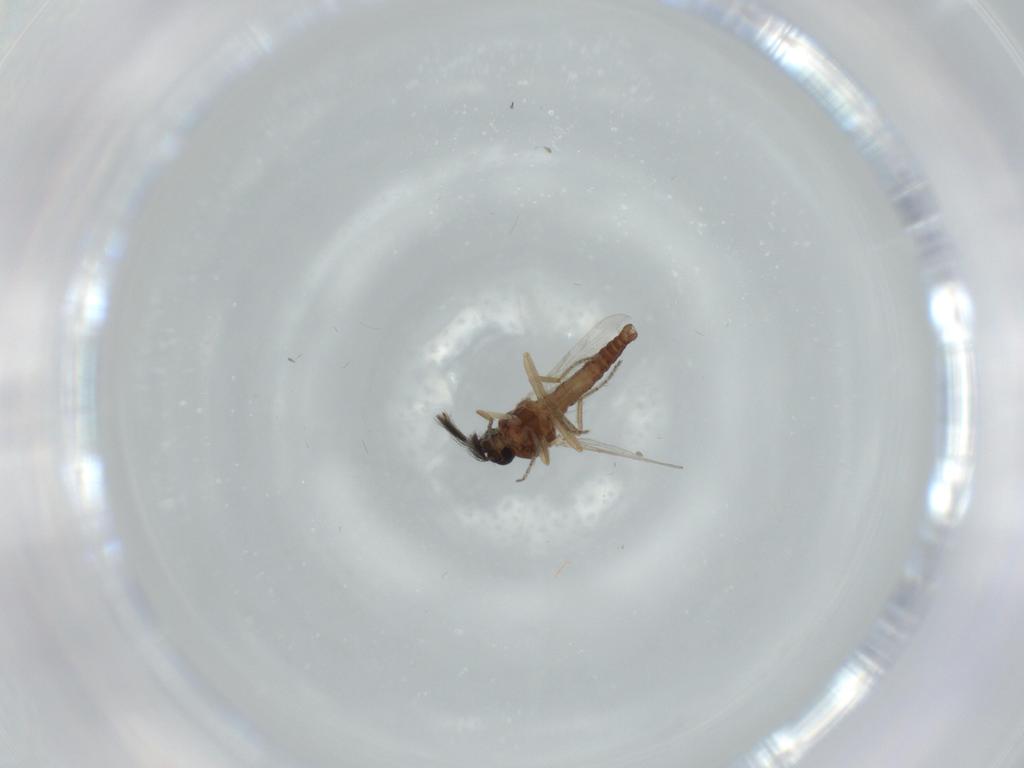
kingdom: Animalia
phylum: Arthropoda
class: Insecta
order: Diptera
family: Ceratopogonidae
